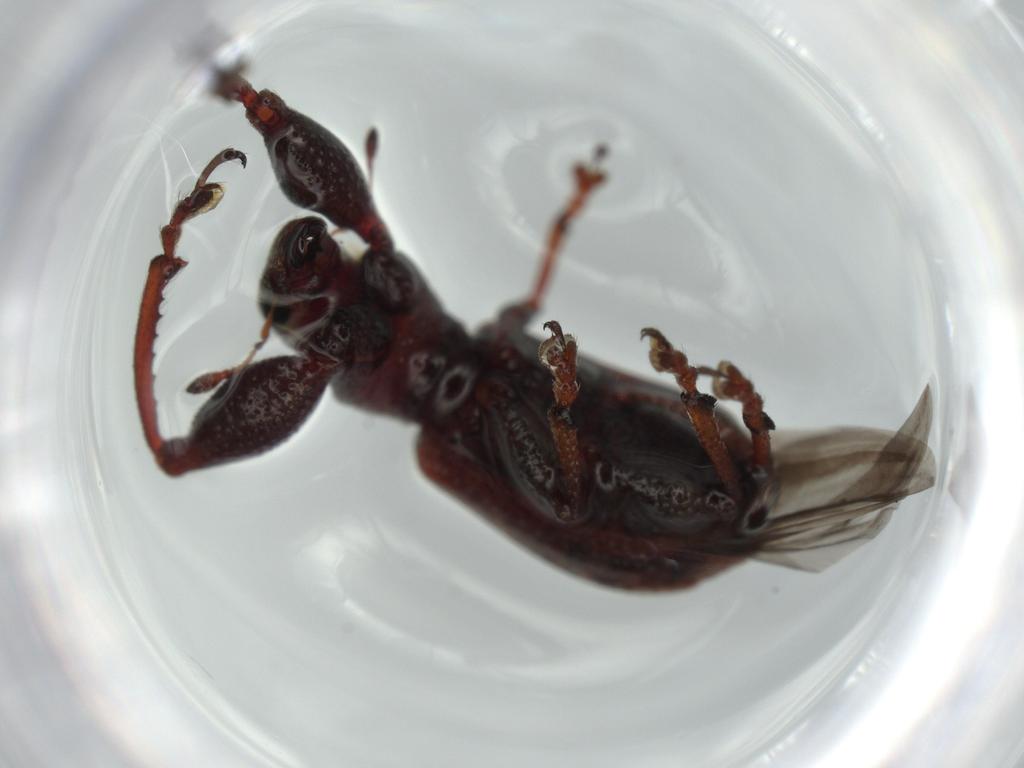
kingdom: Animalia
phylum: Arthropoda
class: Insecta
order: Coleoptera
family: Curculionidae
